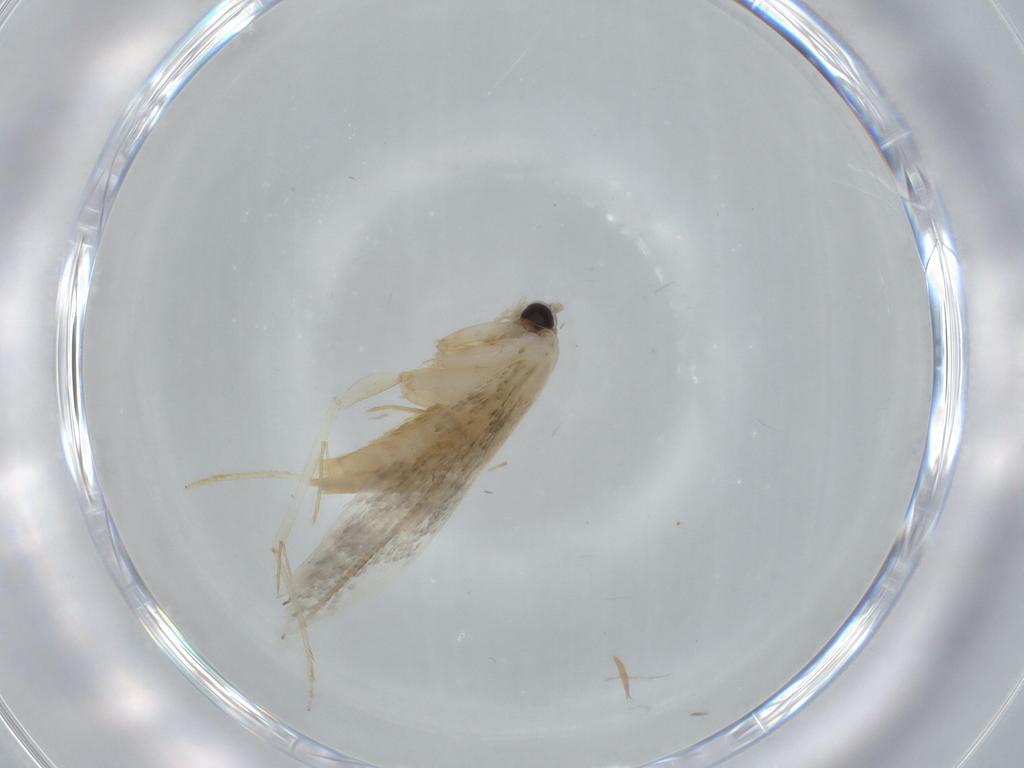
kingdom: Animalia
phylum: Arthropoda
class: Insecta
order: Lepidoptera
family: Tineidae
